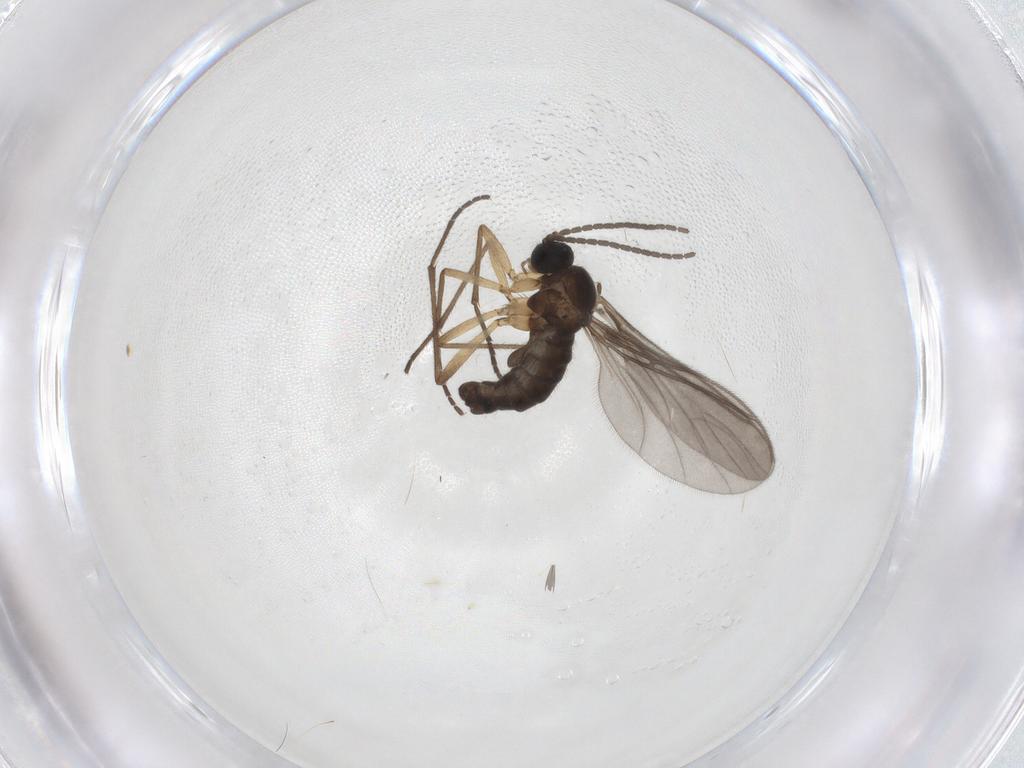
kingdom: Animalia
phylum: Arthropoda
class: Insecta
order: Diptera
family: Sciaridae
